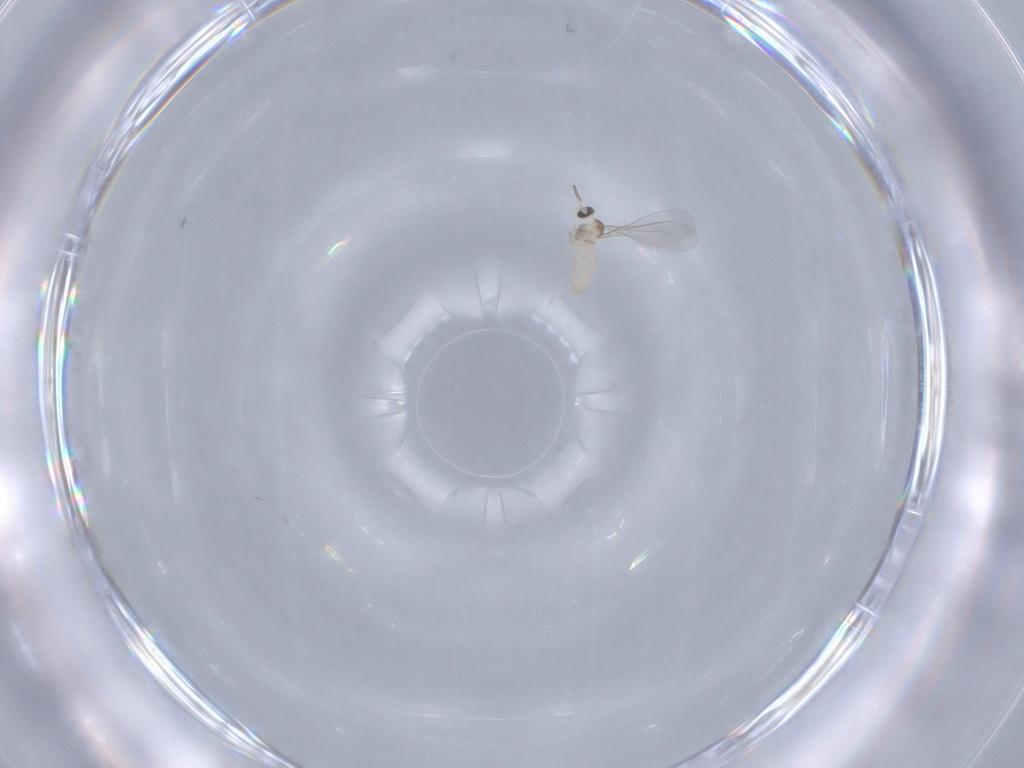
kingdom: Animalia
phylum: Arthropoda
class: Insecta
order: Diptera
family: Cecidomyiidae
